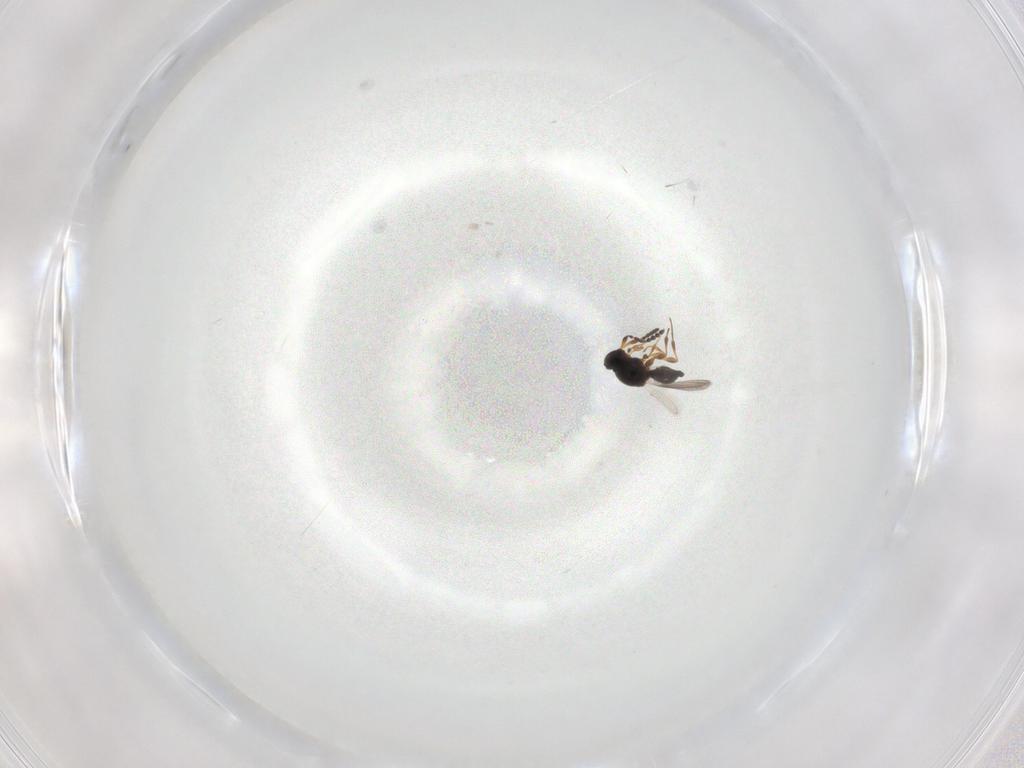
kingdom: Animalia
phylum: Arthropoda
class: Insecta
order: Hymenoptera
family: Platygastridae
